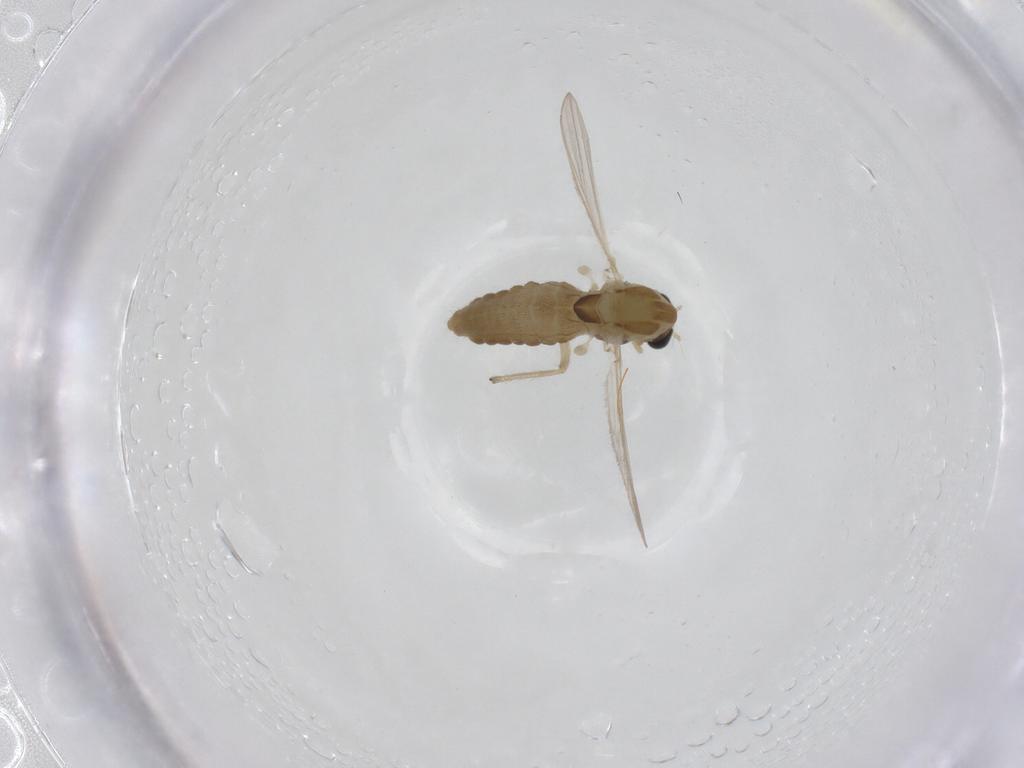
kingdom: Animalia
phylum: Arthropoda
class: Insecta
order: Diptera
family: Chironomidae
